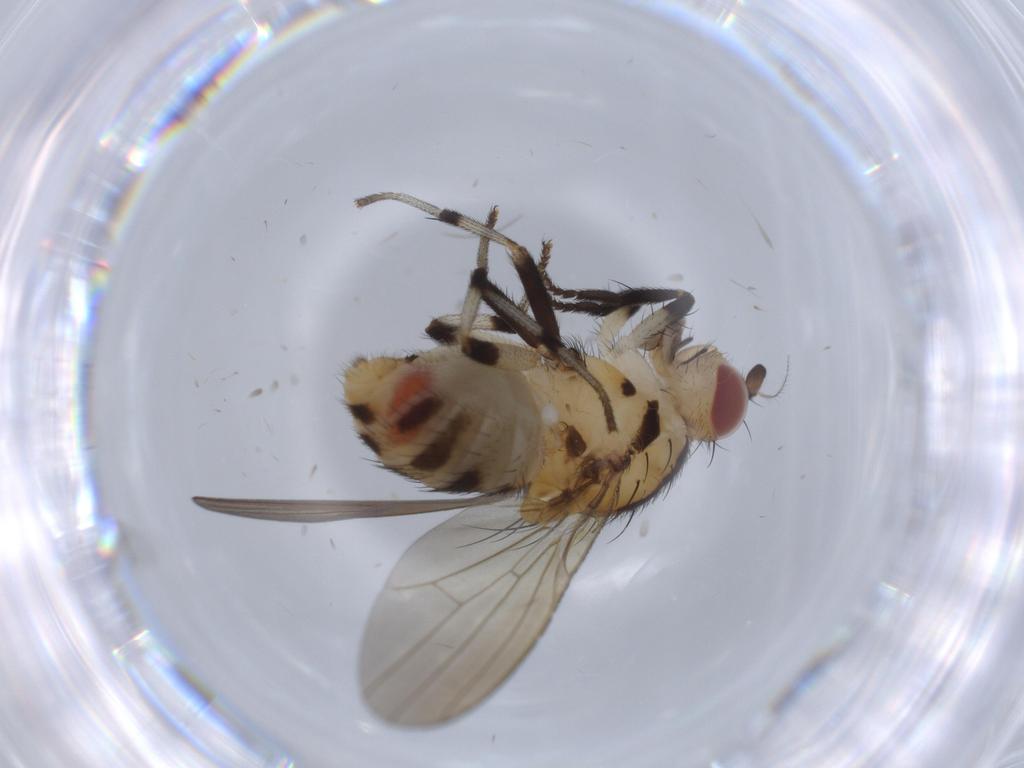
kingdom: Animalia
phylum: Arthropoda
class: Insecta
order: Diptera
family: Lauxaniidae
